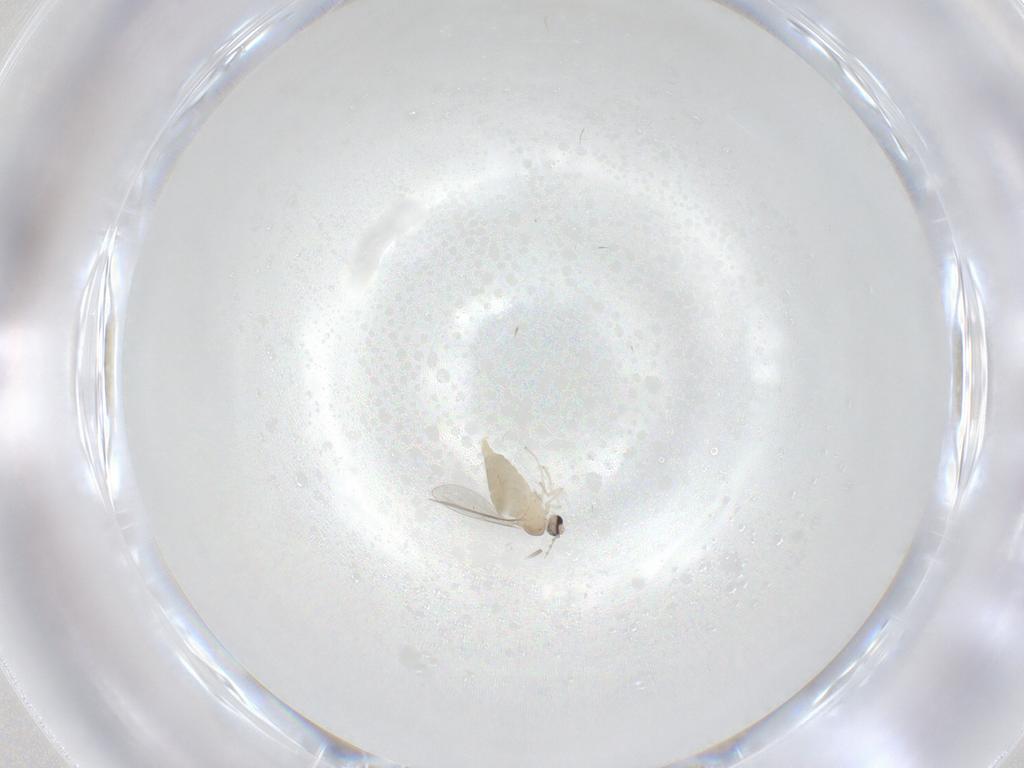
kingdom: Animalia
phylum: Arthropoda
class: Insecta
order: Diptera
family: Cecidomyiidae
